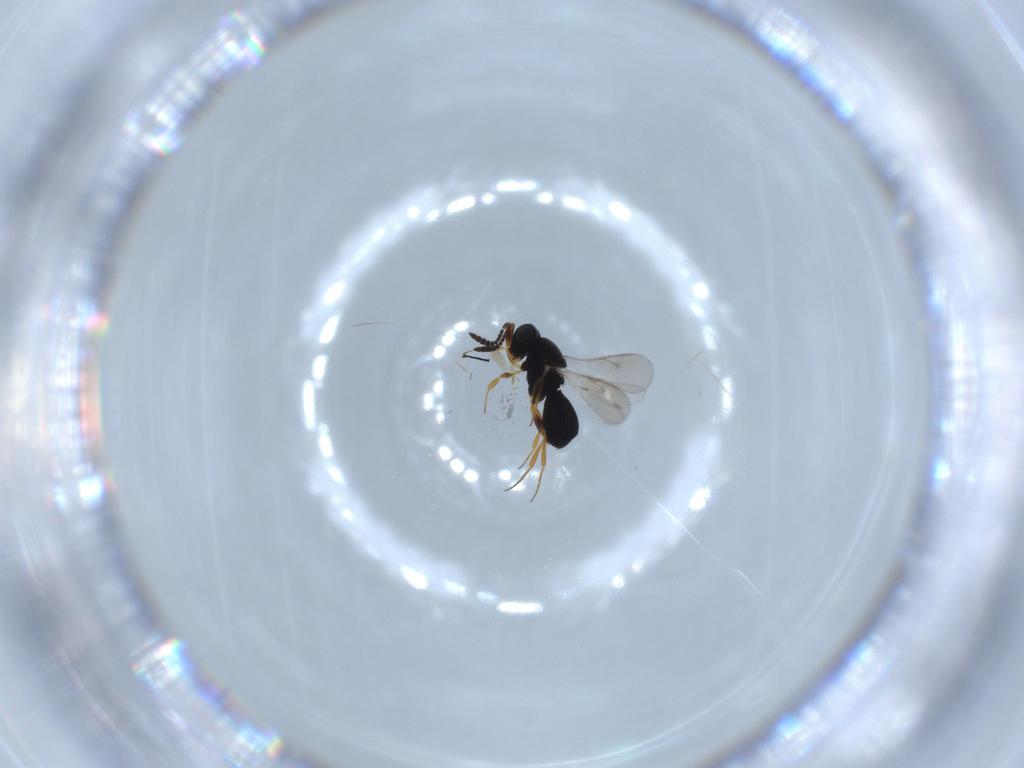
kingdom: Animalia
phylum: Arthropoda
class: Insecta
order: Hymenoptera
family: Scelionidae
